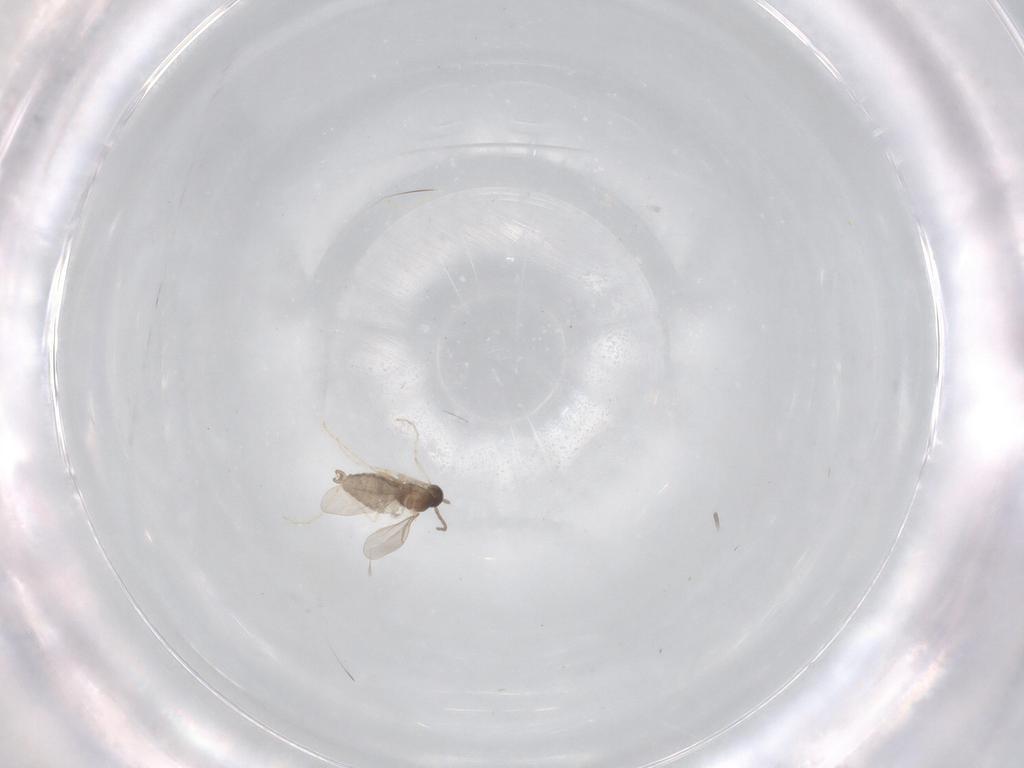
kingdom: Animalia
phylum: Arthropoda
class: Insecta
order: Diptera
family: Cecidomyiidae
